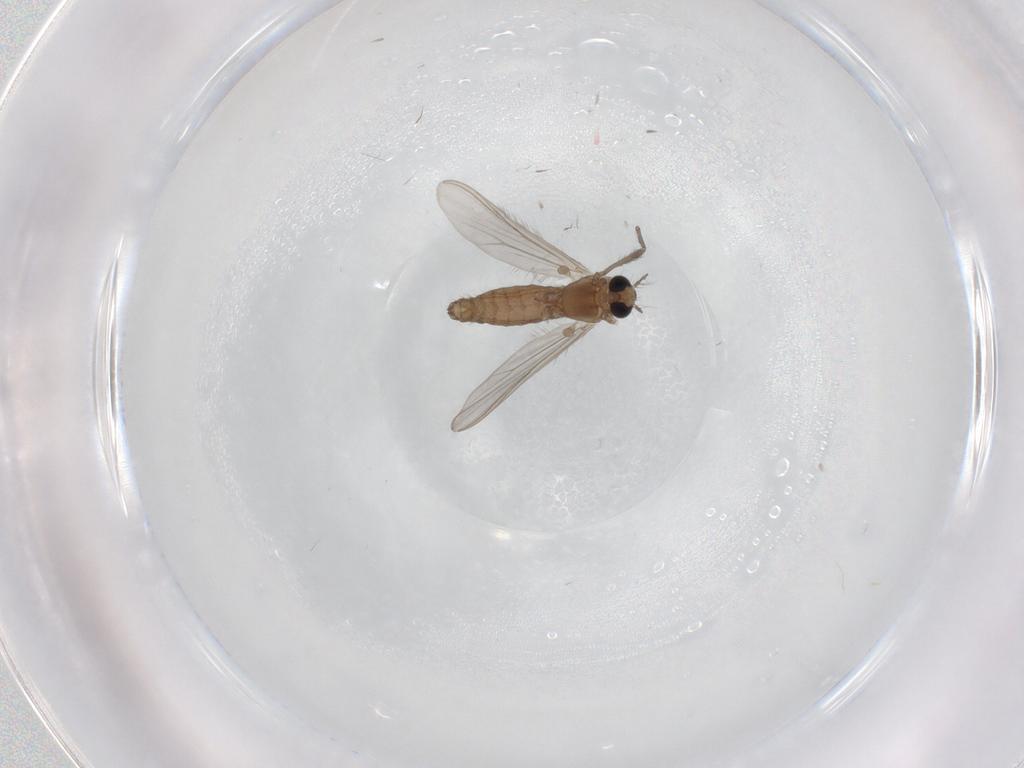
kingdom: Animalia
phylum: Arthropoda
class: Insecta
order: Diptera
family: Chironomidae
